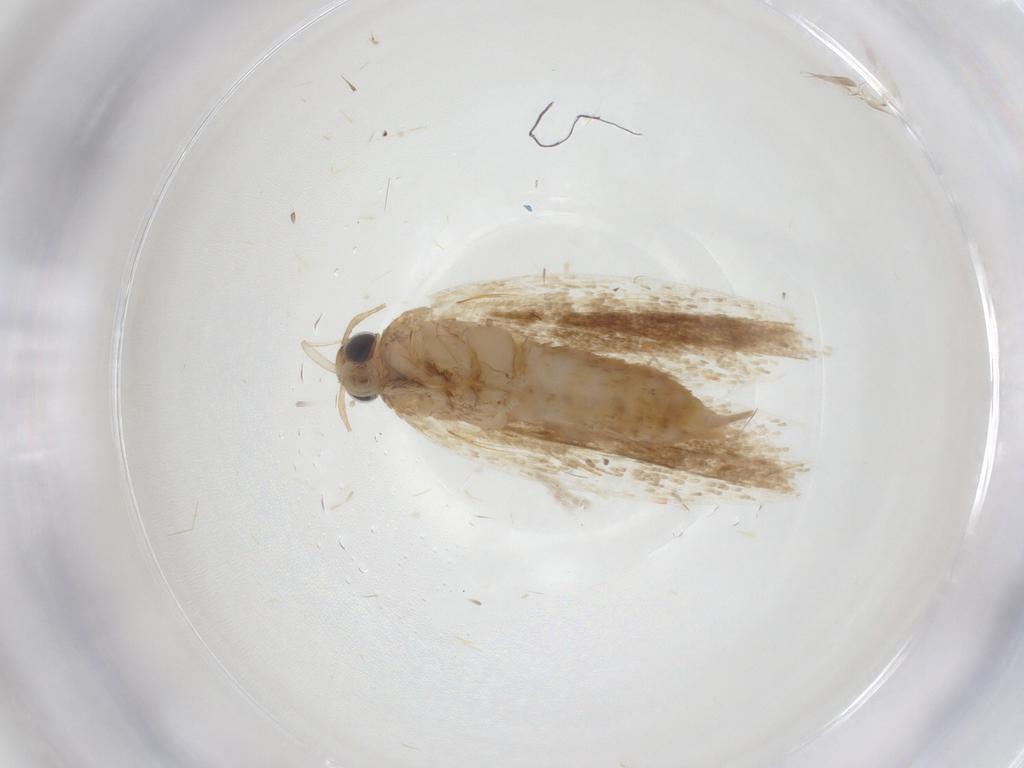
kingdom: Animalia
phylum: Arthropoda
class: Insecta
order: Lepidoptera
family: Gelechiidae
